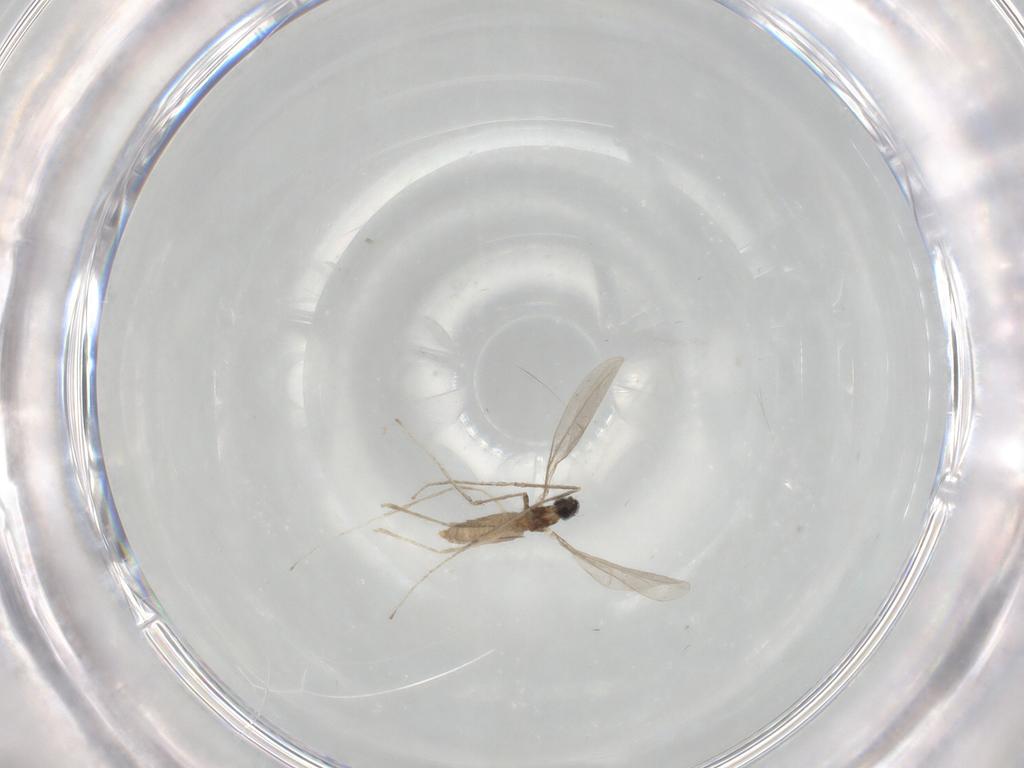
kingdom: Animalia
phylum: Arthropoda
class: Insecta
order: Diptera
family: Cecidomyiidae
